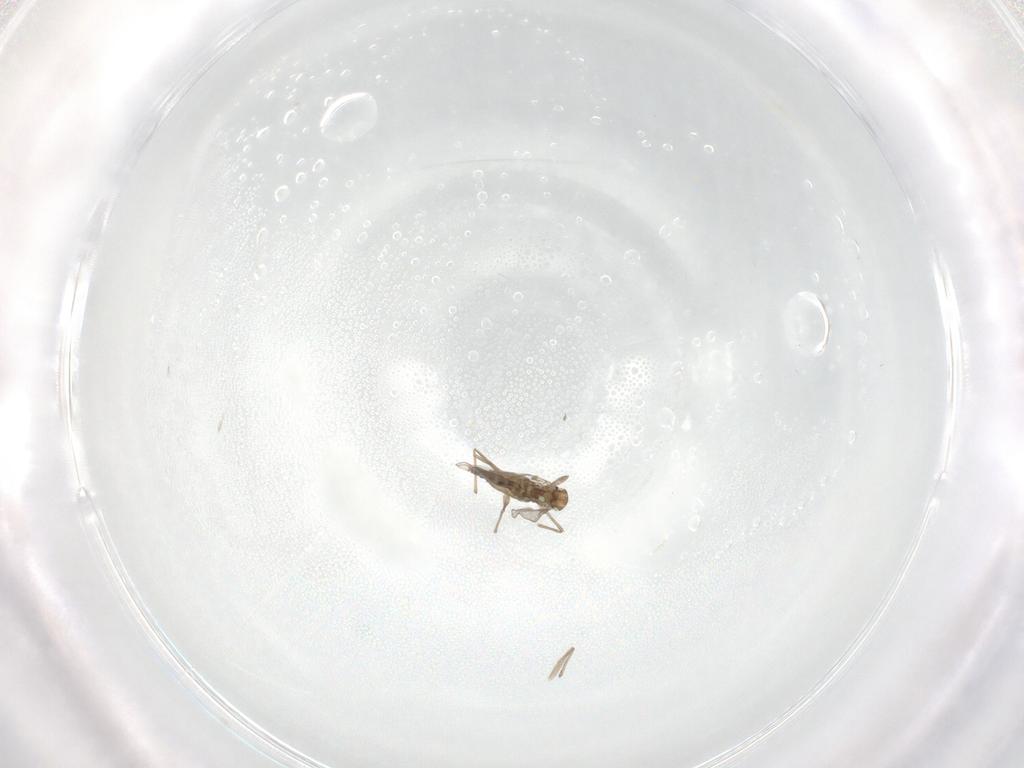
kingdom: Animalia
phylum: Arthropoda
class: Insecta
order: Diptera
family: Chironomidae
